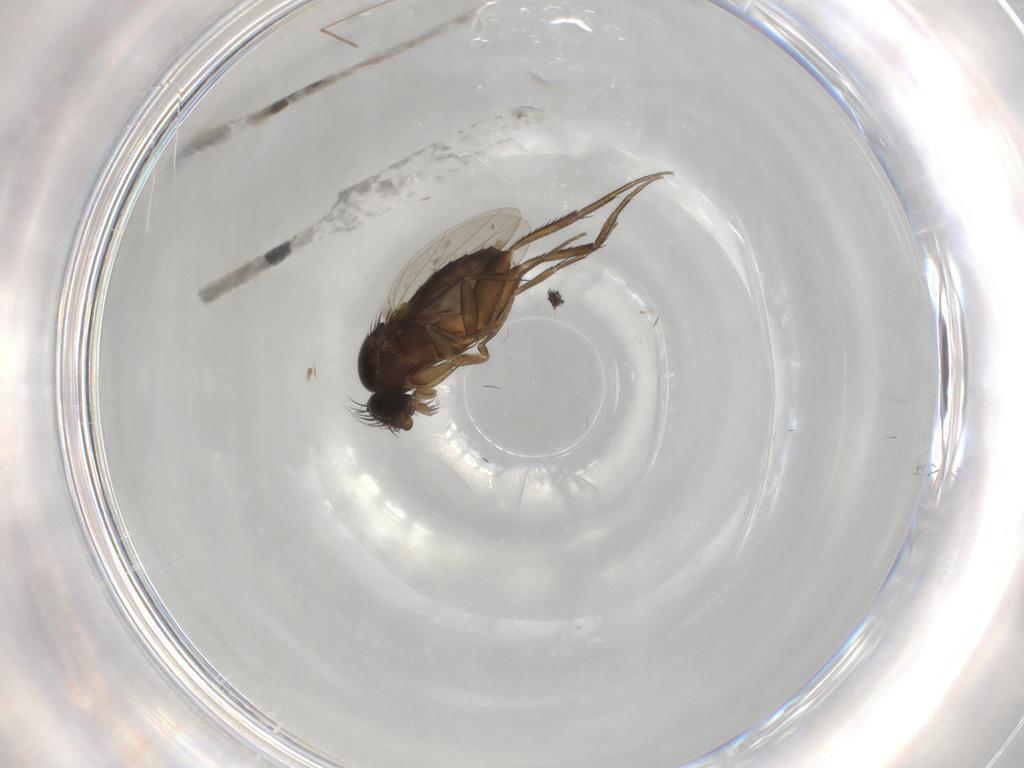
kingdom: Animalia
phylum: Arthropoda
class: Insecta
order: Diptera
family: Phoridae
